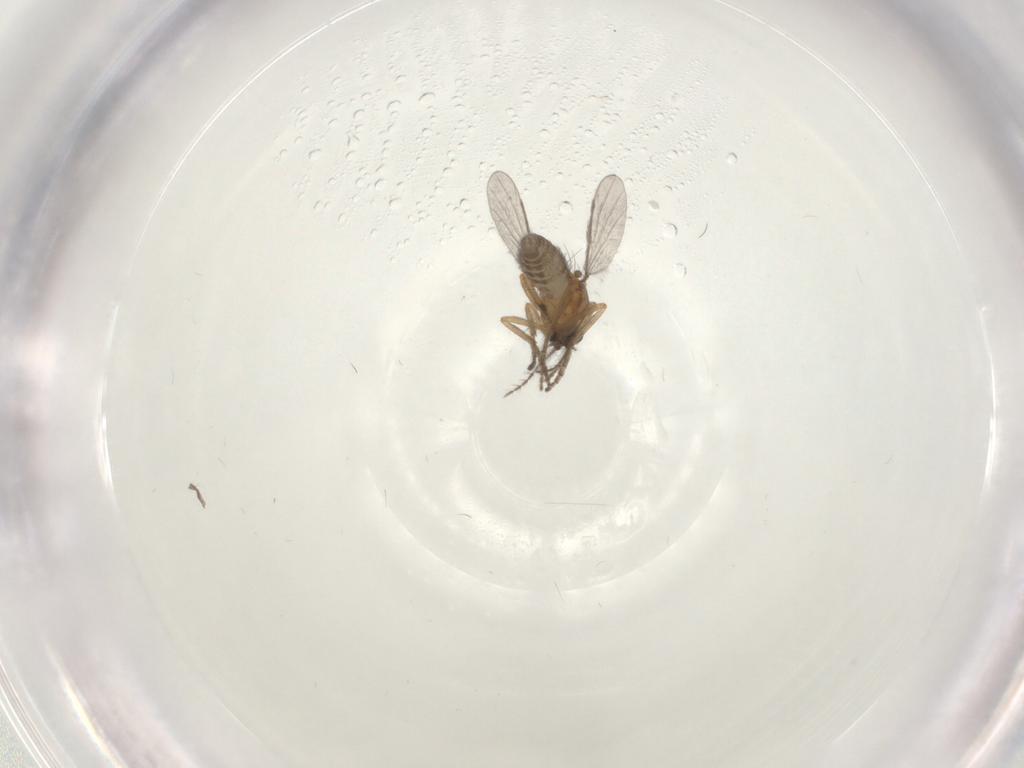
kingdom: Animalia
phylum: Arthropoda
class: Insecta
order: Diptera
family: Sciaridae
